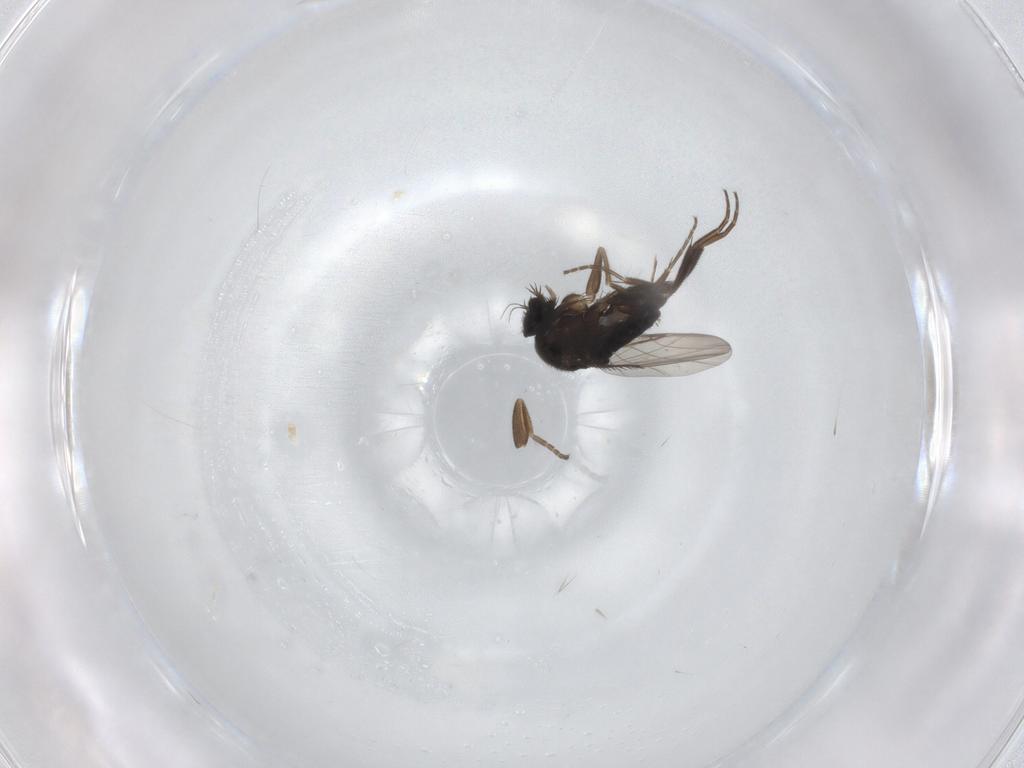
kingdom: Animalia
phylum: Arthropoda
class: Insecta
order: Diptera
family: Phoridae
